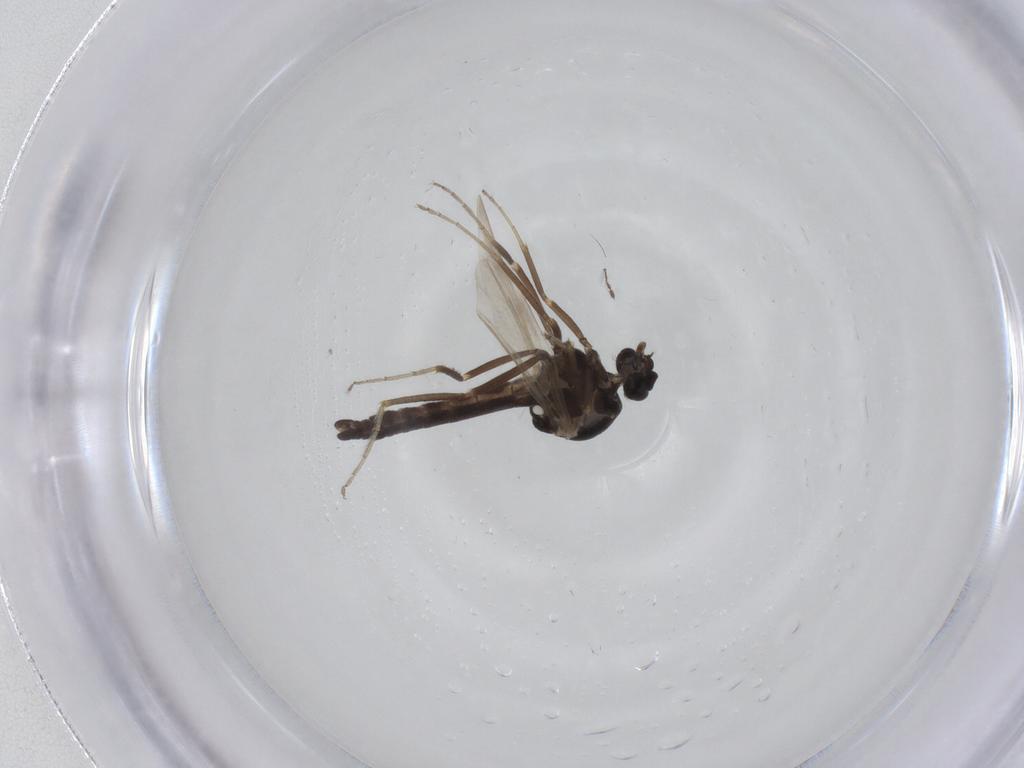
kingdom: Animalia
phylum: Arthropoda
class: Insecta
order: Diptera
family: Ceratopogonidae
